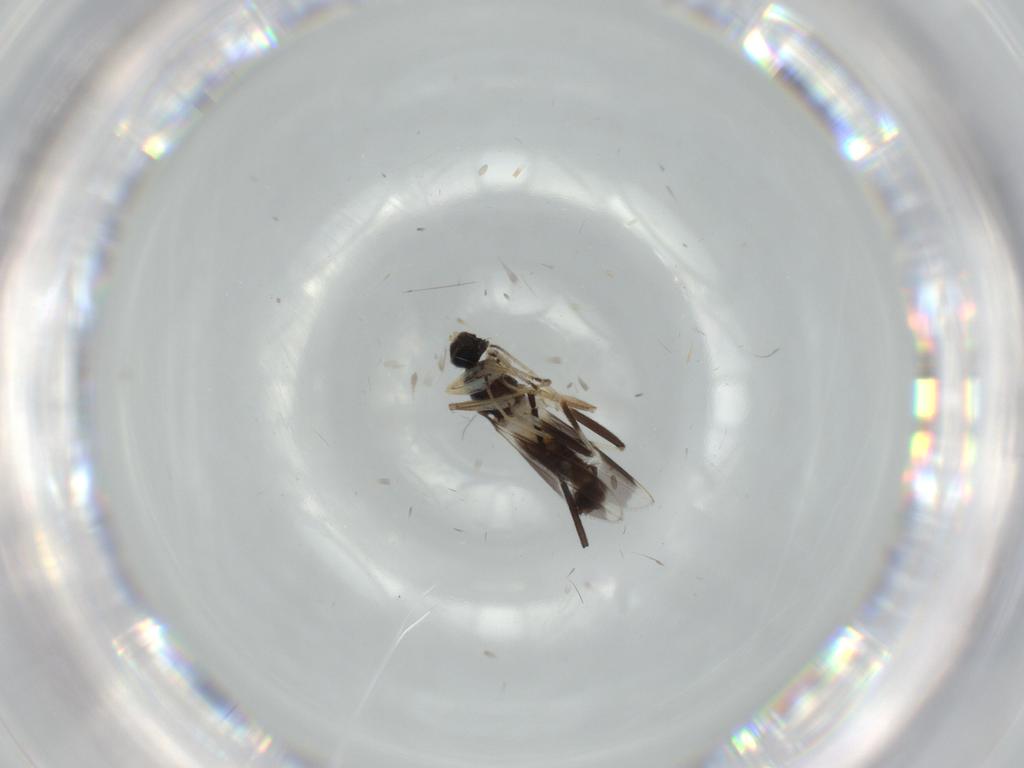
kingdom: Animalia
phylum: Arthropoda
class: Insecta
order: Diptera
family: Hybotidae
